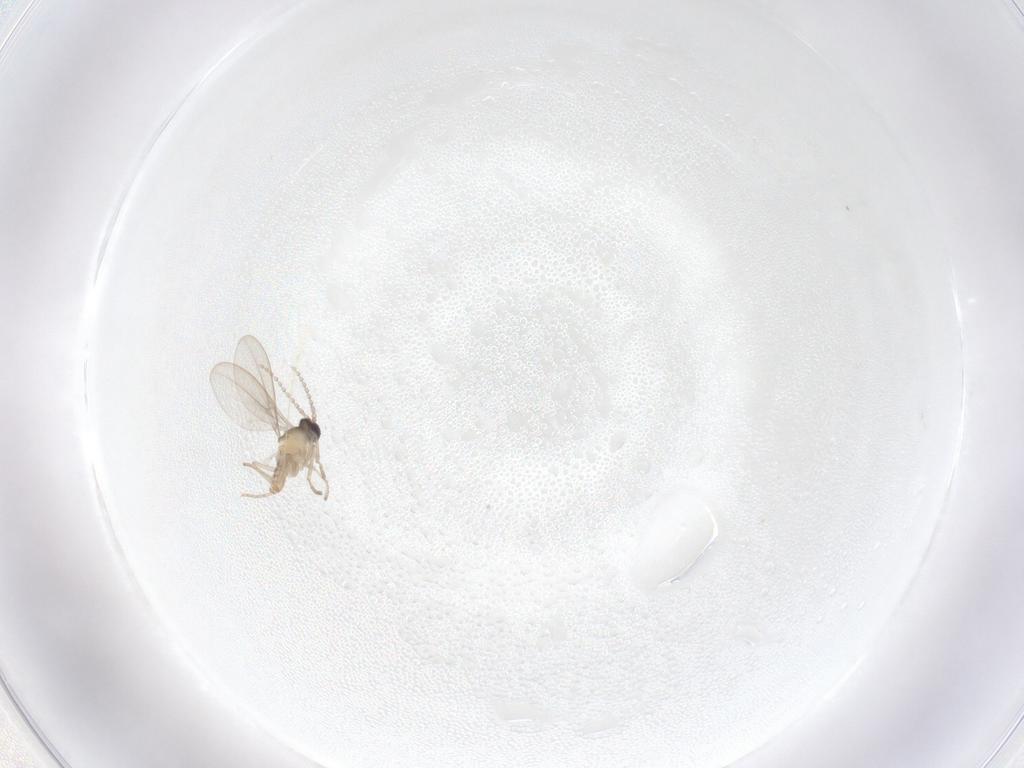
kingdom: Animalia
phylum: Arthropoda
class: Insecta
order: Diptera
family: Psychodidae
